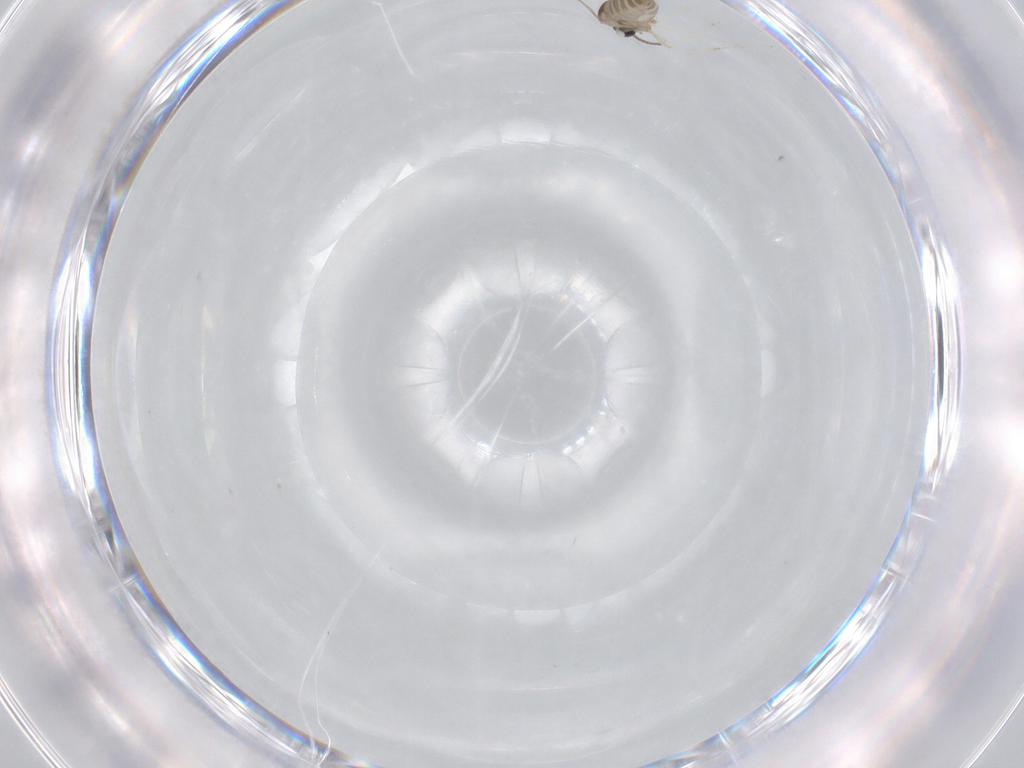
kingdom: Animalia
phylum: Arthropoda
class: Insecta
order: Diptera
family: Cecidomyiidae
